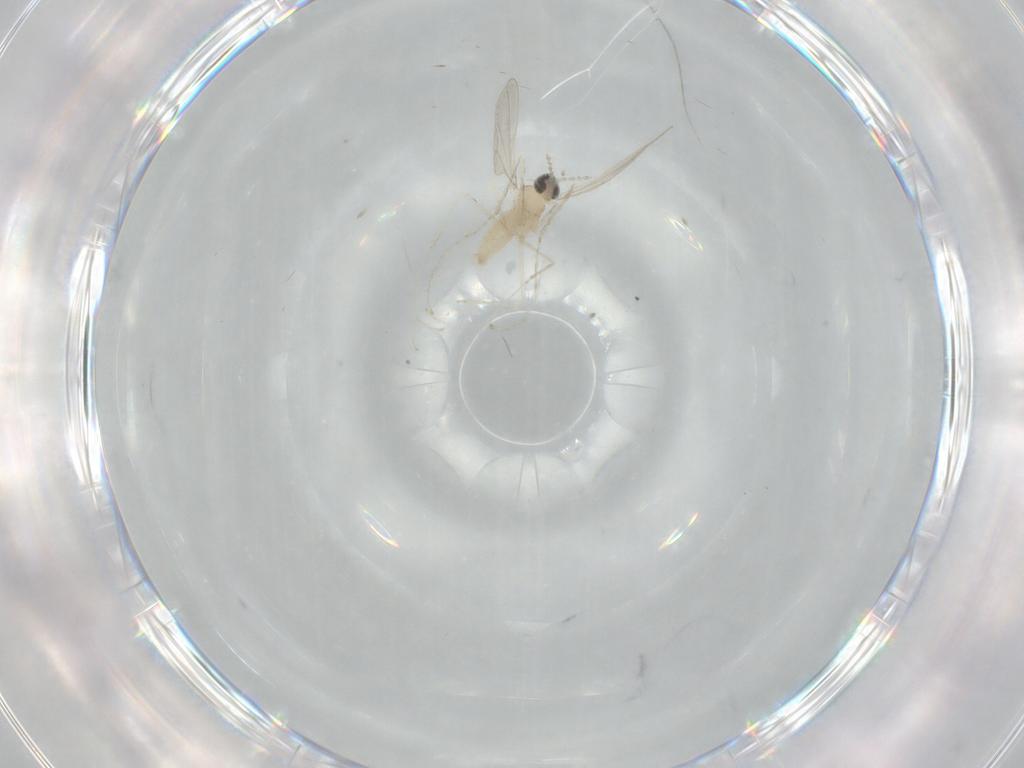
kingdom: Animalia
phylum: Arthropoda
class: Insecta
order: Diptera
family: Cecidomyiidae
